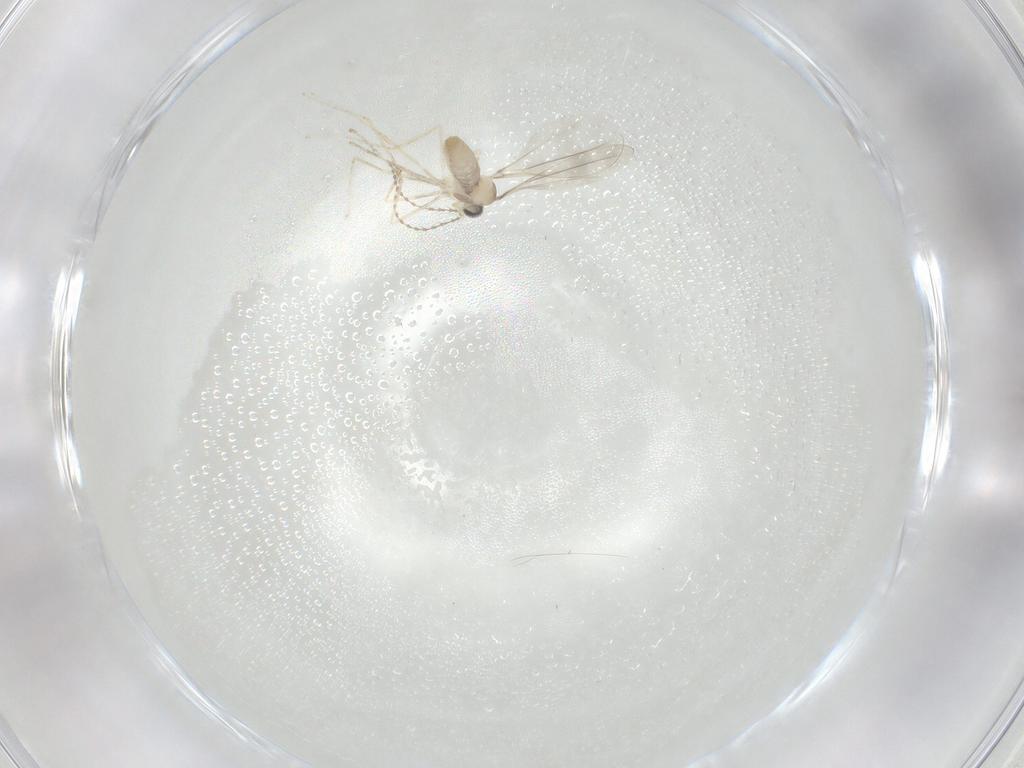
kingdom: Animalia
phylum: Arthropoda
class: Insecta
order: Diptera
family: Cecidomyiidae
